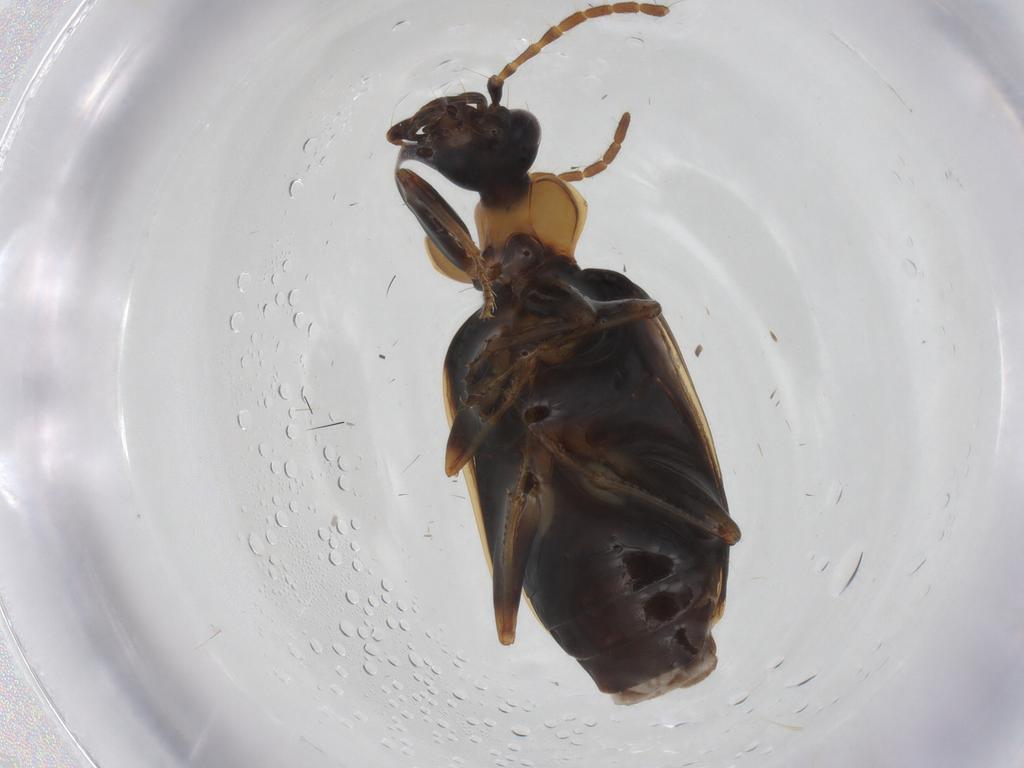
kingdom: Animalia
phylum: Arthropoda
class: Insecta
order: Coleoptera
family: Carabidae
